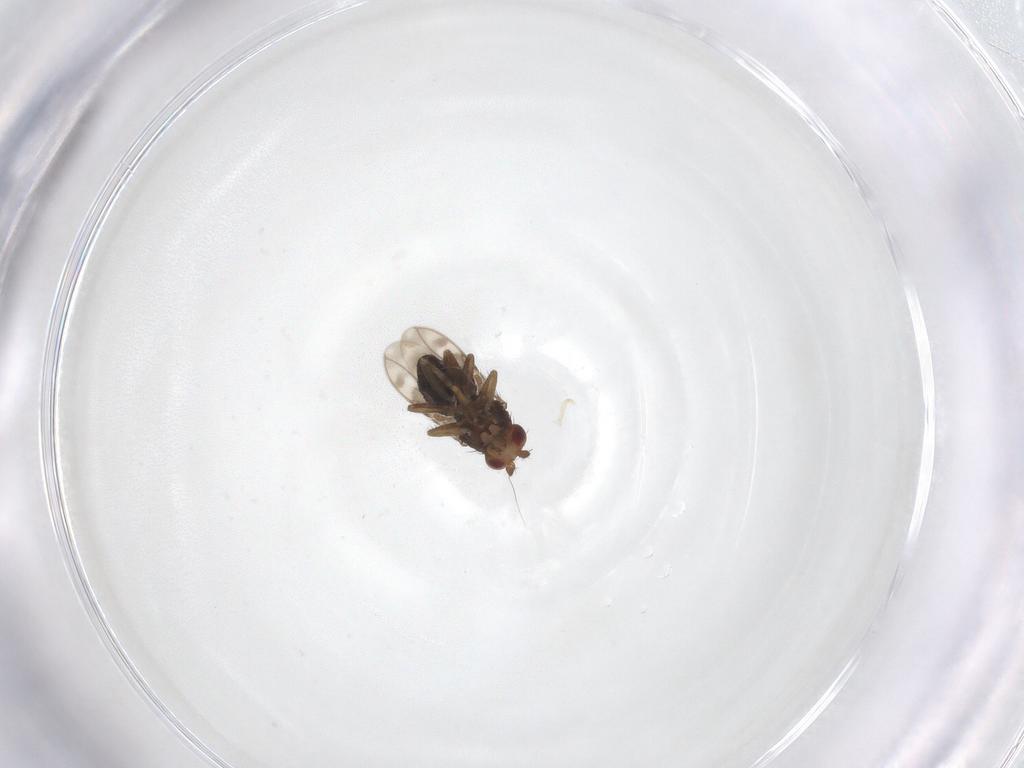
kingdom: Animalia
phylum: Arthropoda
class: Insecta
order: Diptera
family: Sphaeroceridae
